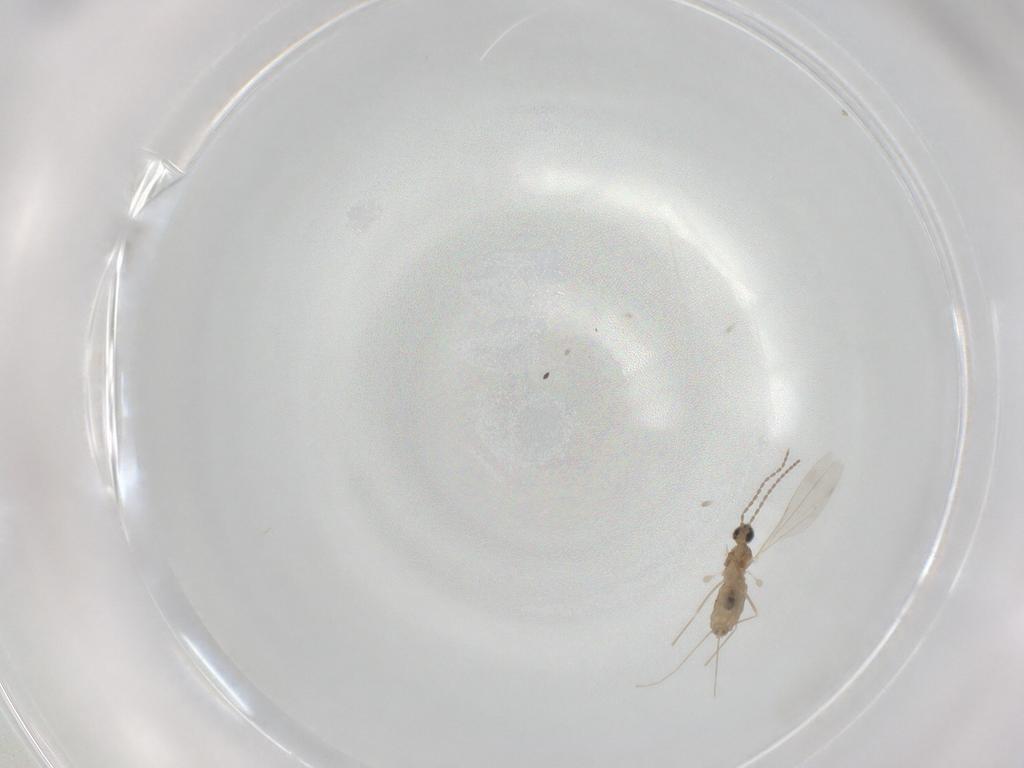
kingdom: Animalia
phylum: Arthropoda
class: Insecta
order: Diptera
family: Cecidomyiidae
